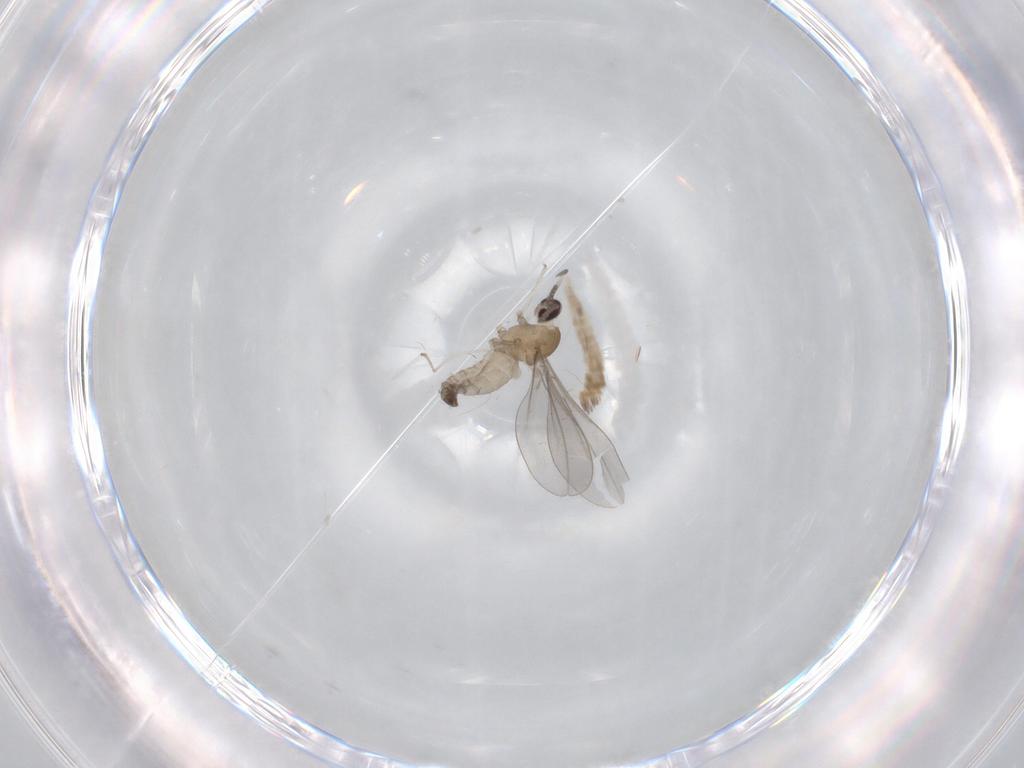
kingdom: Animalia
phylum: Arthropoda
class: Insecta
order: Diptera
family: Cecidomyiidae
